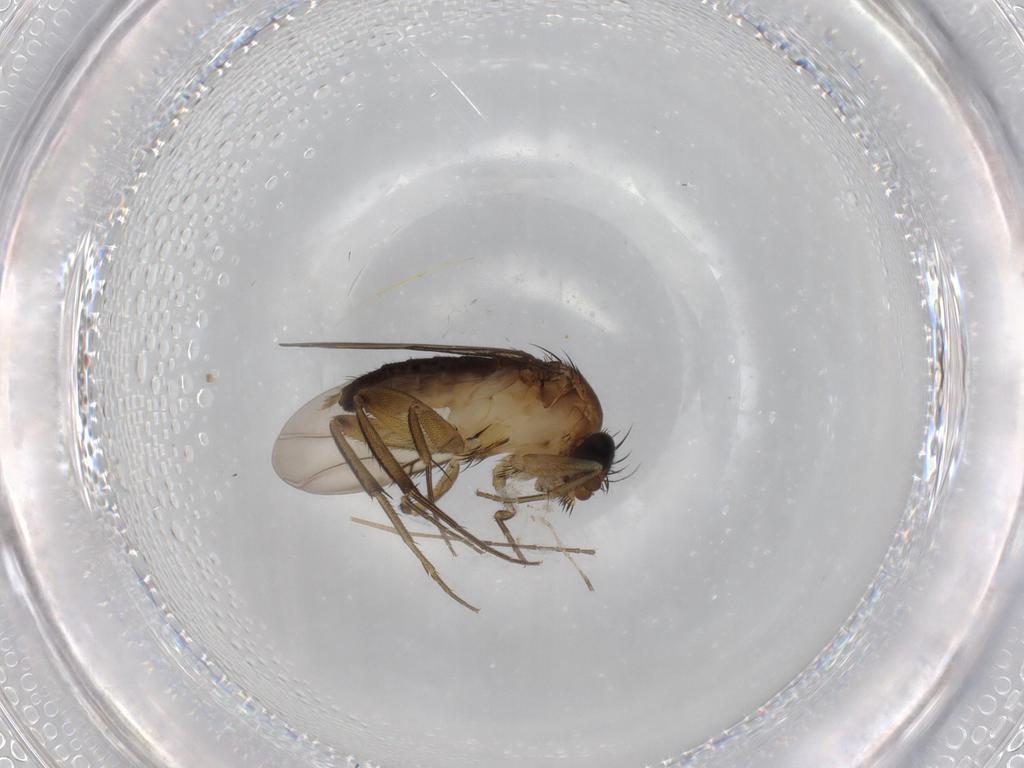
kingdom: Animalia
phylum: Arthropoda
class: Insecta
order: Diptera
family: Phoridae
